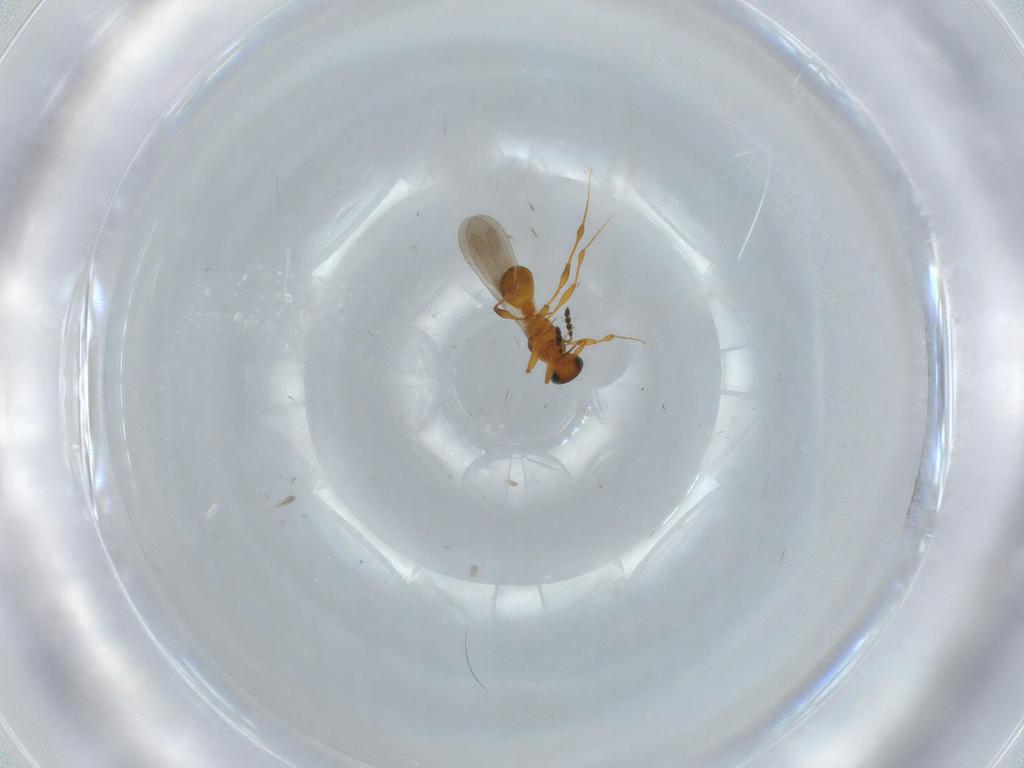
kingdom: Animalia
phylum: Arthropoda
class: Insecta
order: Hymenoptera
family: Platygastridae
